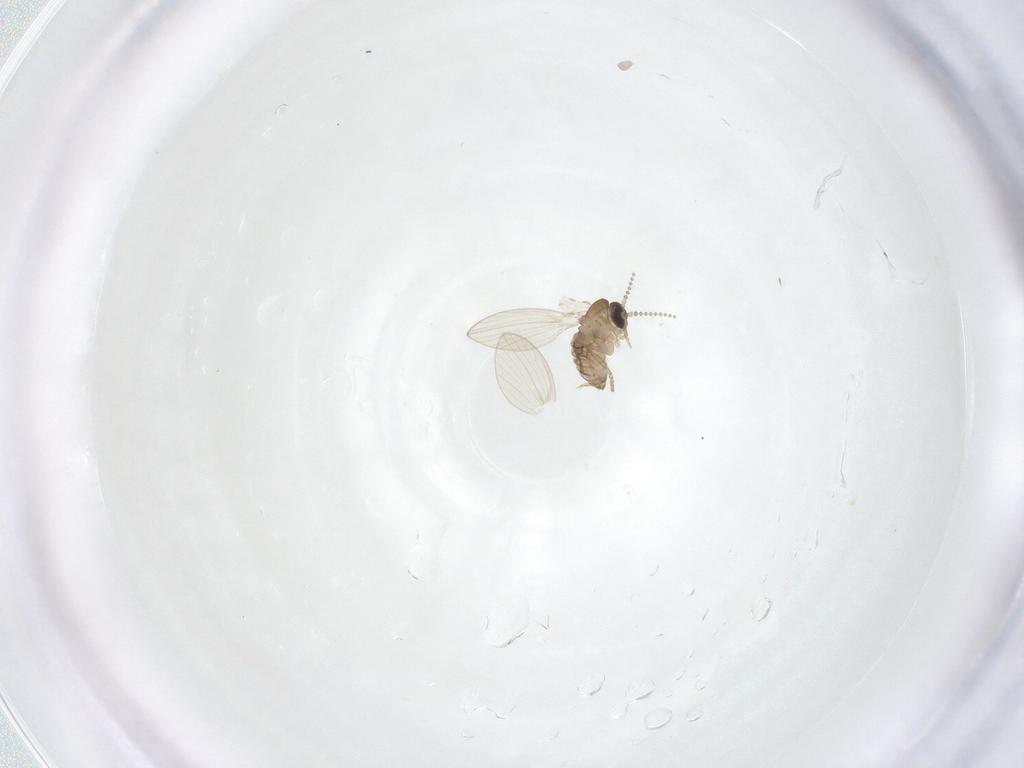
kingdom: Animalia
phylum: Arthropoda
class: Insecta
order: Diptera
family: Psychodidae
